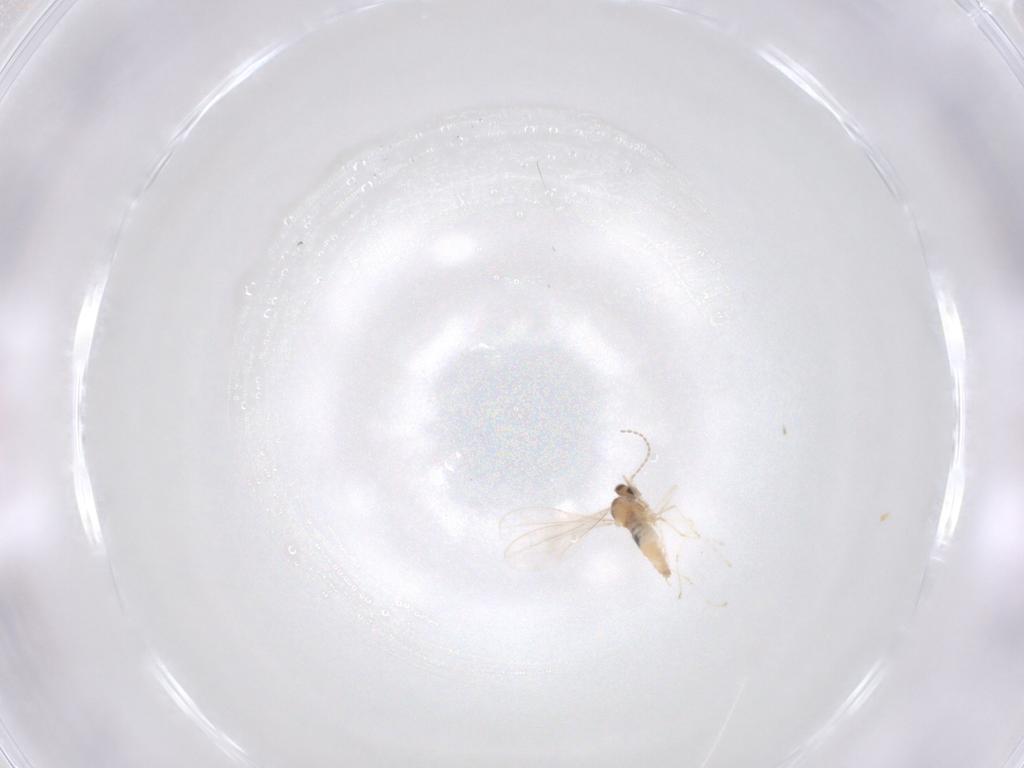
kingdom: Animalia
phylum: Arthropoda
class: Insecta
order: Diptera
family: Cecidomyiidae
